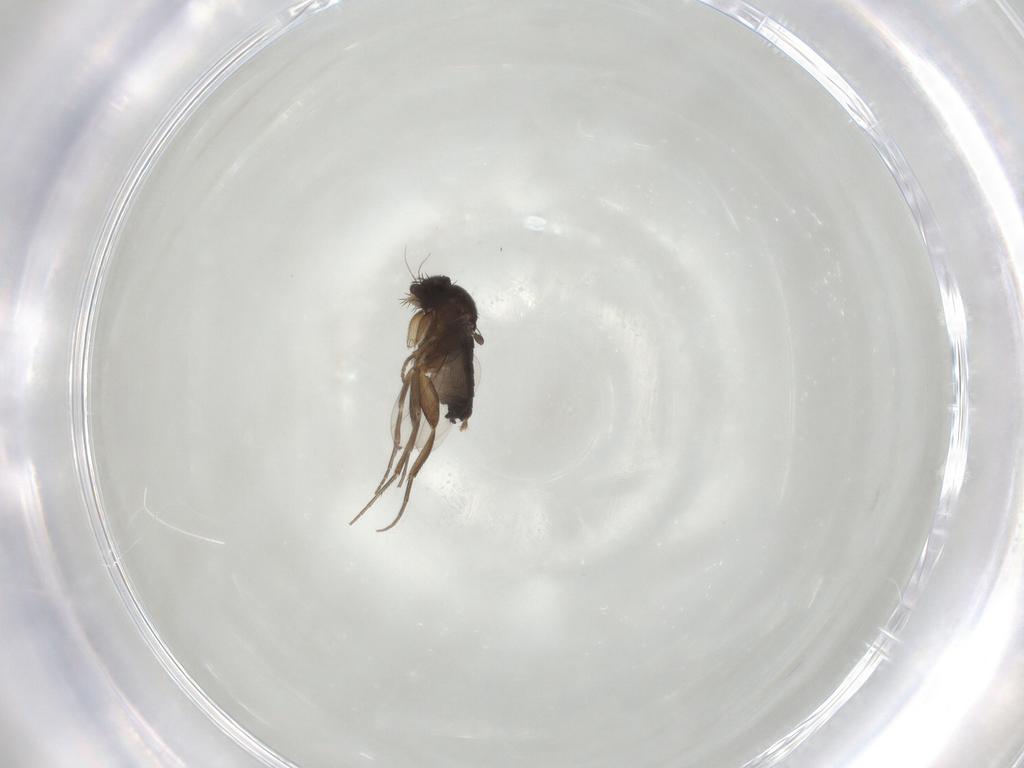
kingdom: Animalia
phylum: Arthropoda
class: Insecta
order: Diptera
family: Phoridae
